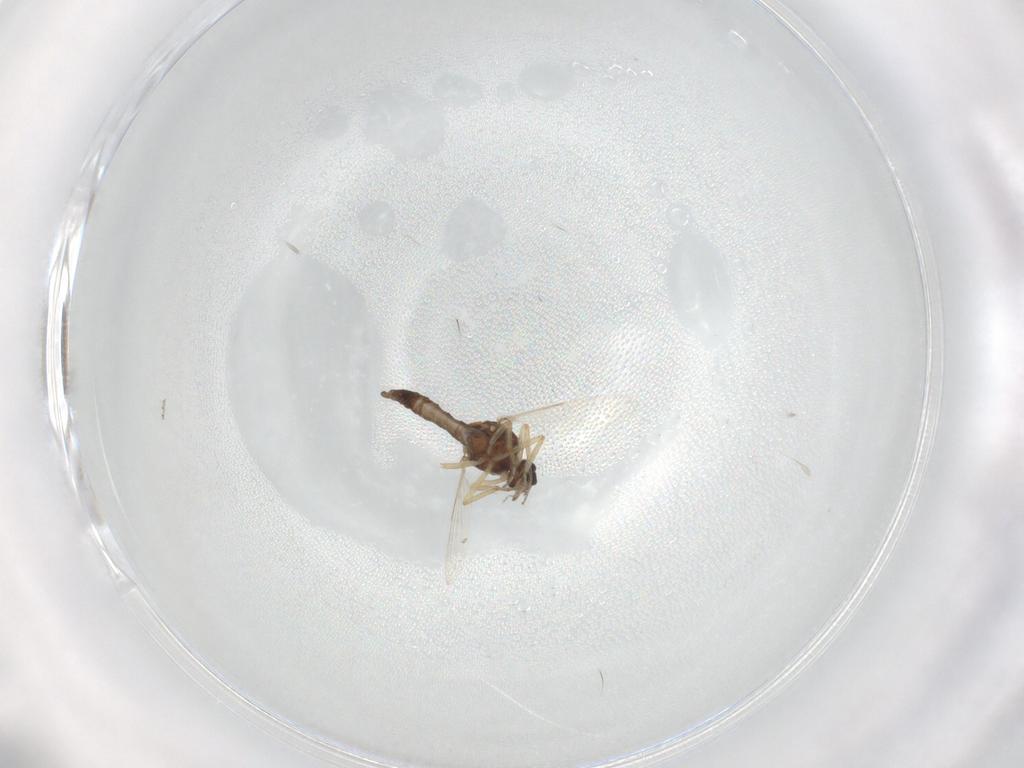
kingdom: Animalia
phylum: Arthropoda
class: Insecta
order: Diptera
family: Ceratopogonidae
